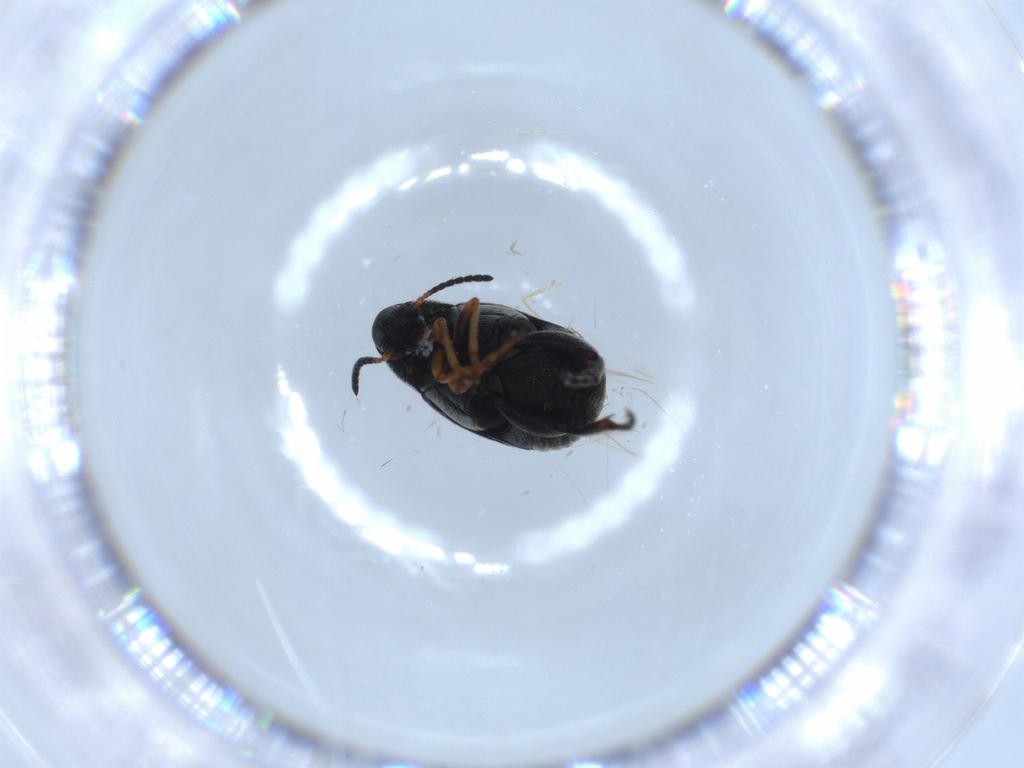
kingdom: Animalia
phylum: Arthropoda
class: Insecta
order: Coleoptera
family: Chrysomelidae
